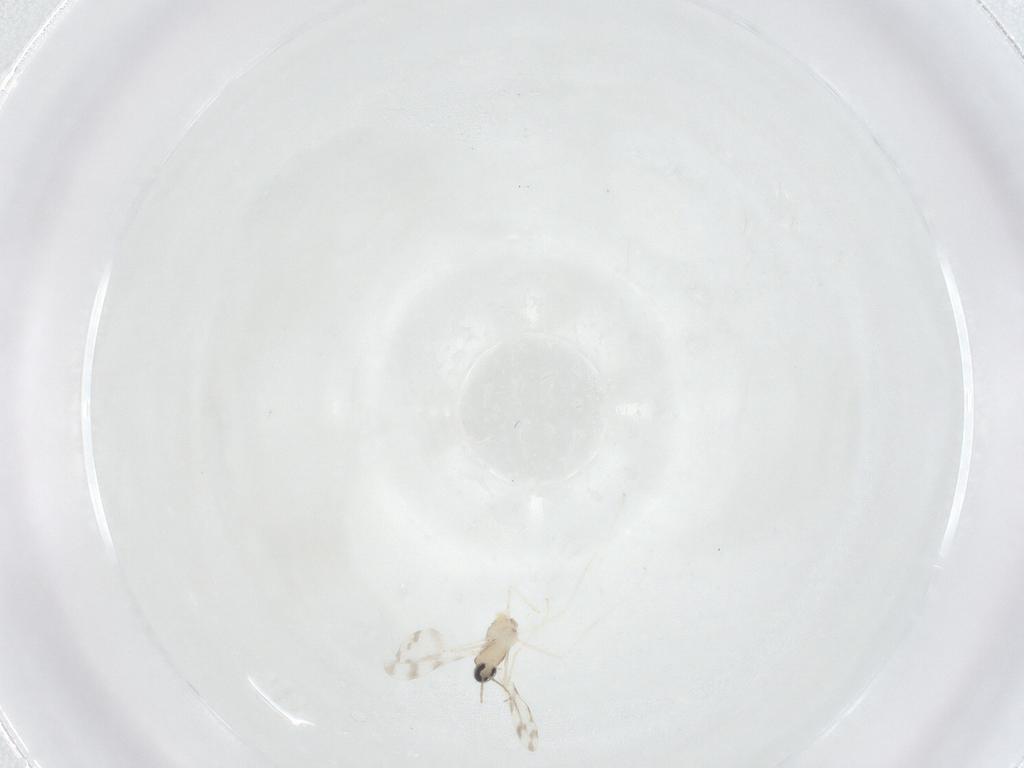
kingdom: Animalia
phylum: Arthropoda
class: Insecta
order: Diptera
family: Cecidomyiidae
